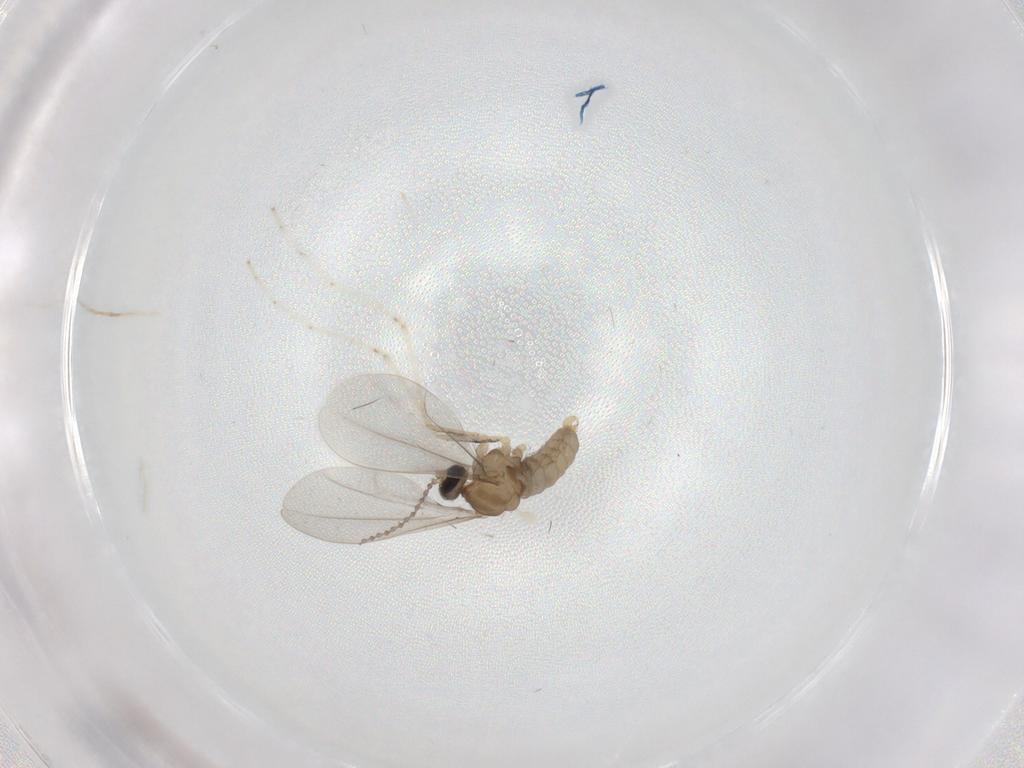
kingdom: Animalia
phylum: Arthropoda
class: Insecta
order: Diptera
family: Cecidomyiidae
